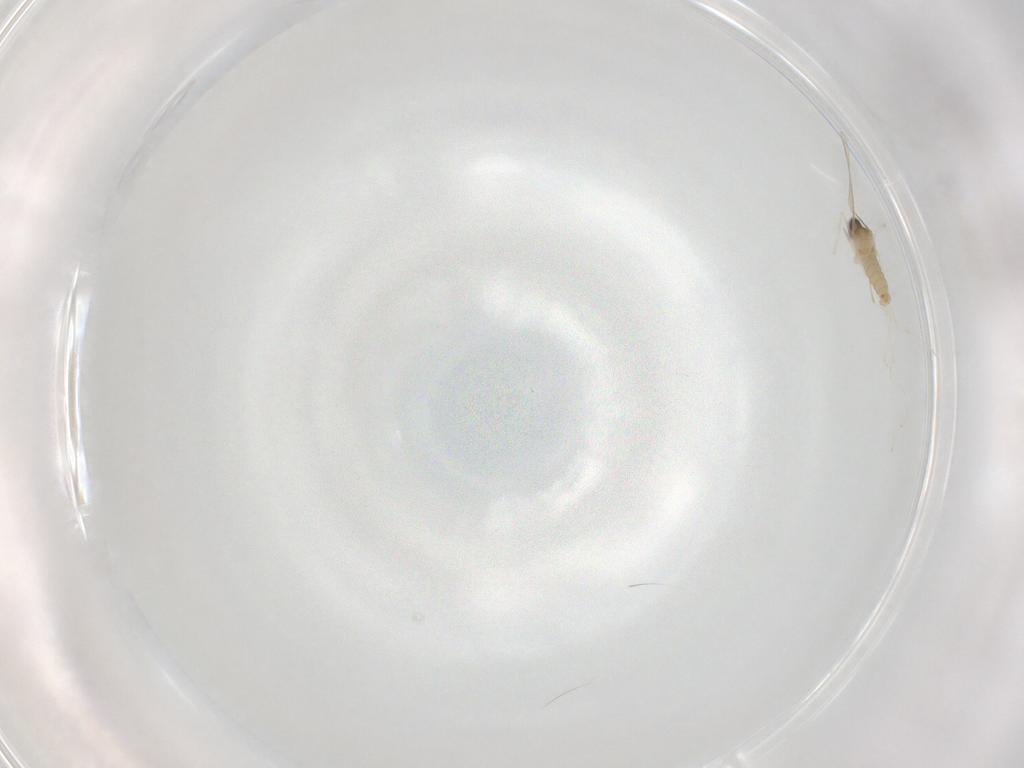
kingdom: Animalia
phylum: Arthropoda
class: Insecta
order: Diptera
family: Cecidomyiidae
